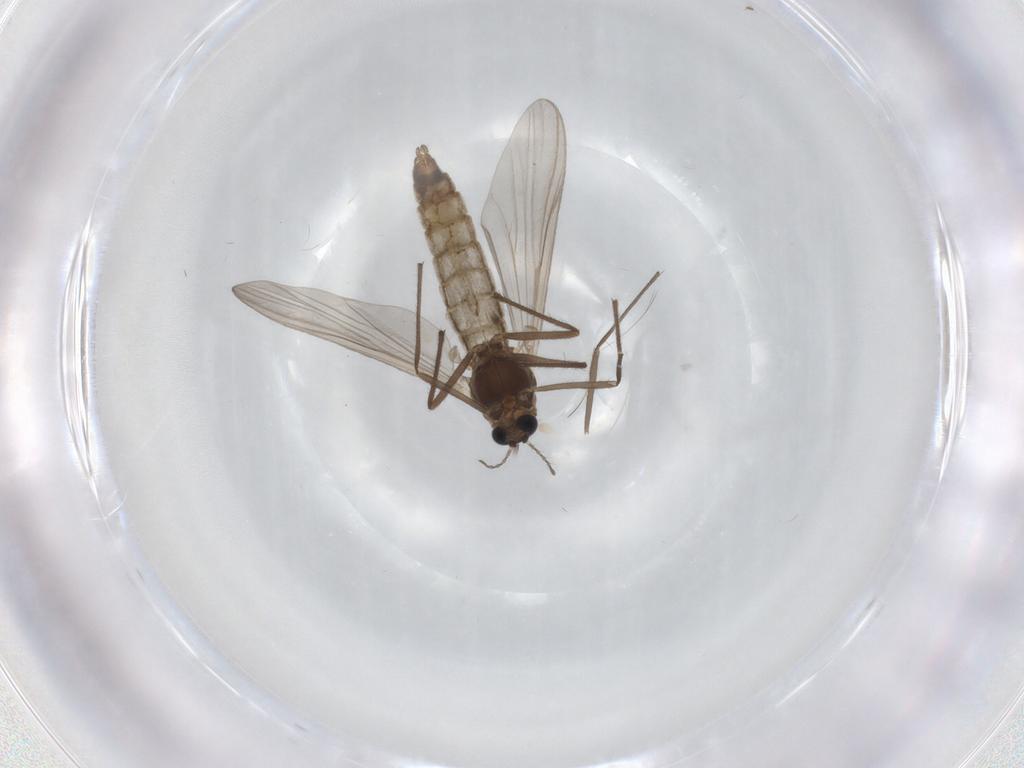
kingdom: Animalia
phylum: Arthropoda
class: Insecta
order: Diptera
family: Chironomidae
